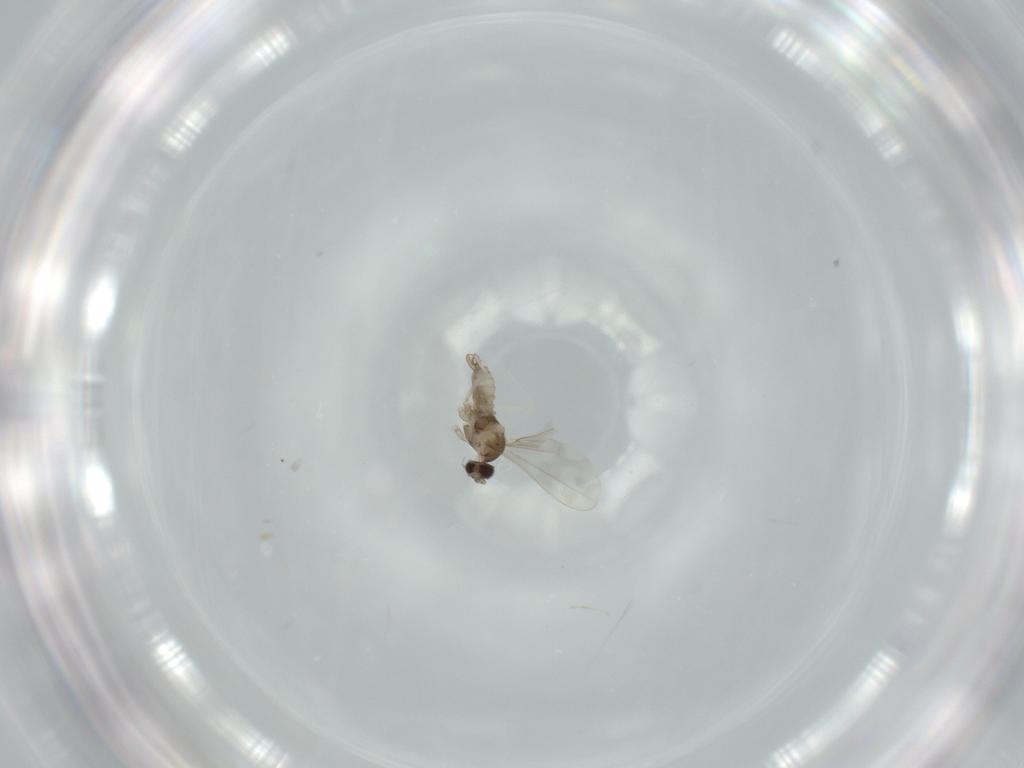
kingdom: Animalia
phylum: Arthropoda
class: Insecta
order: Diptera
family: Cecidomyiidae
